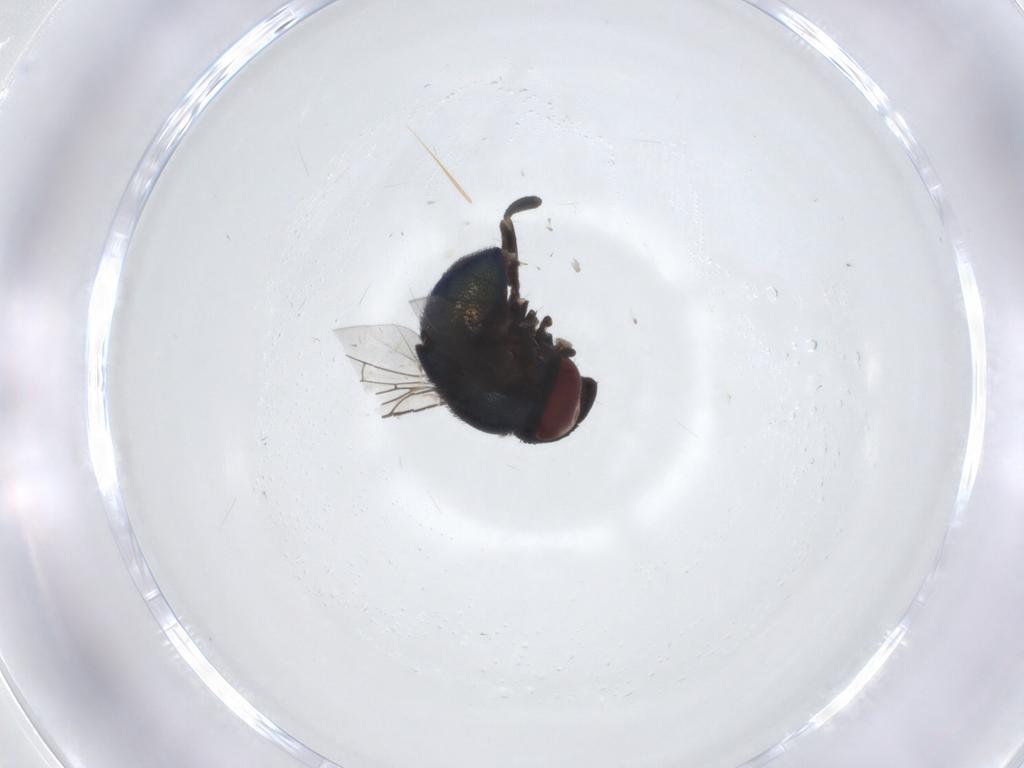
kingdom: Animalia
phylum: Arthropoda
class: Insecta
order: Diptera
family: Cryptochetidae
